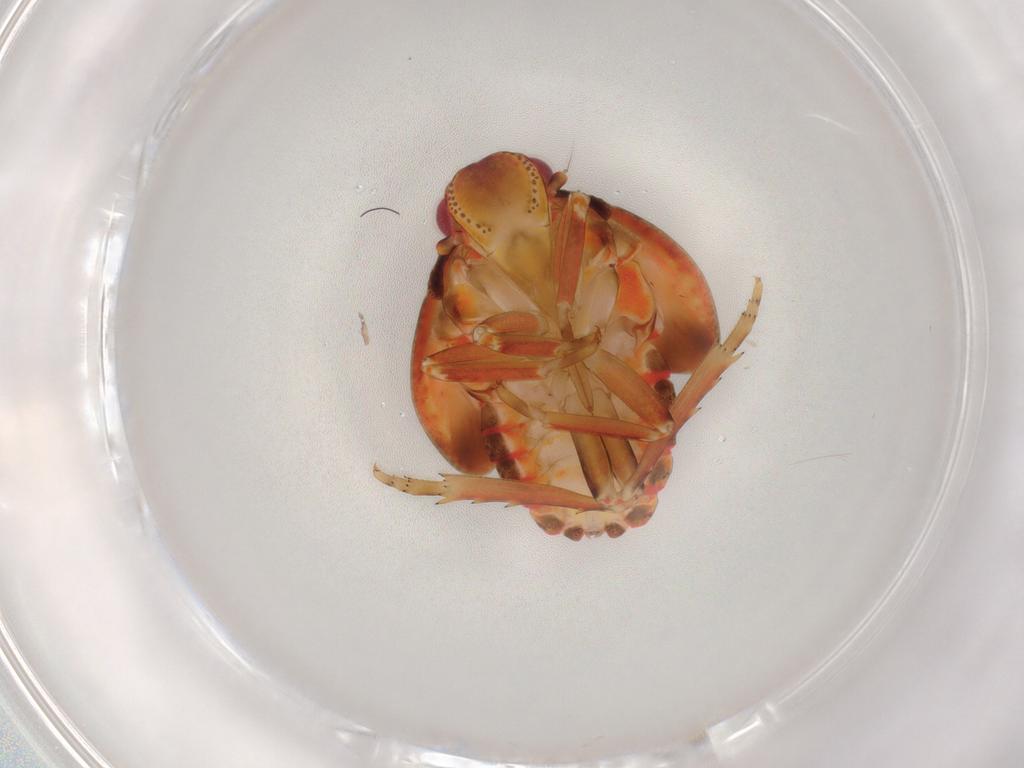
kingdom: Animalia
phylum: Arthropoda
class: Insecta
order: Hemiptera
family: Flatidae
